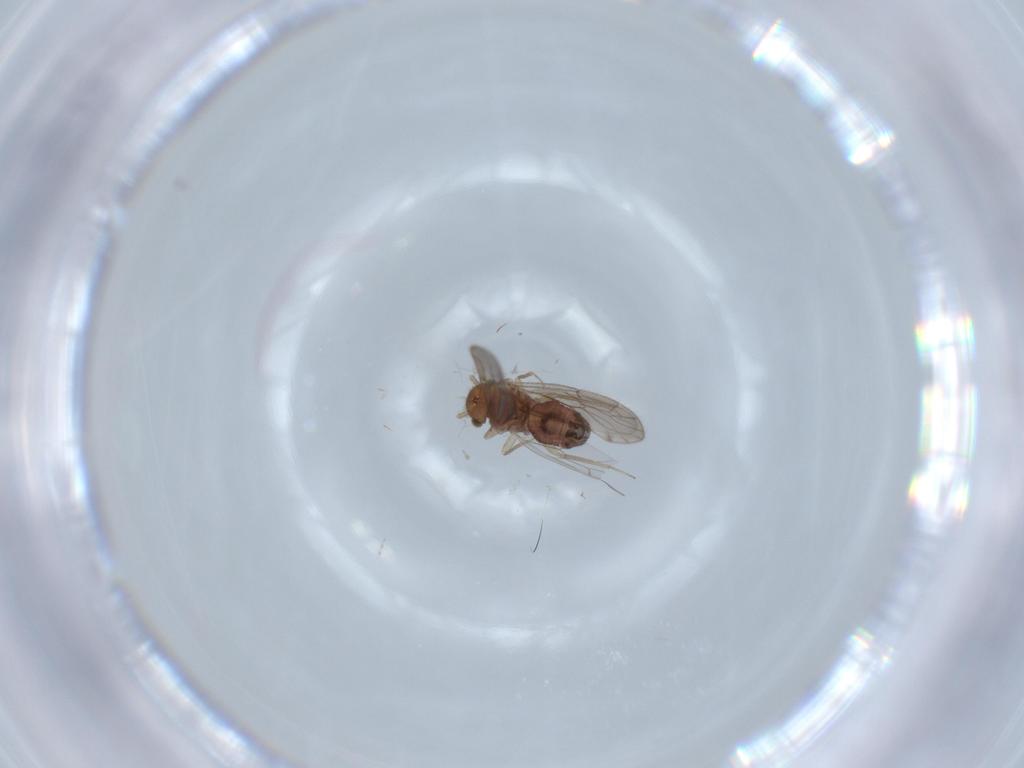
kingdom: Animalia
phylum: Arthropoda
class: Insecta
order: Psocodea
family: Ectopsocidae
